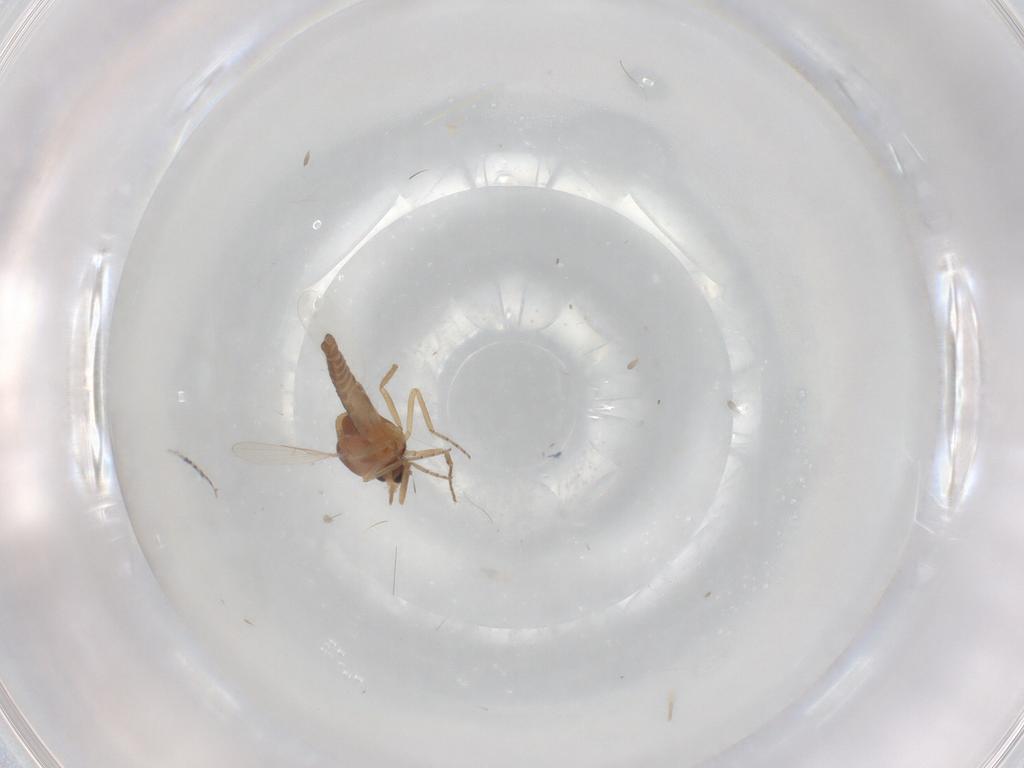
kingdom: Animalia
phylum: Arthropoda
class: Insecta
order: Diptera
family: Ceratopogonidae
